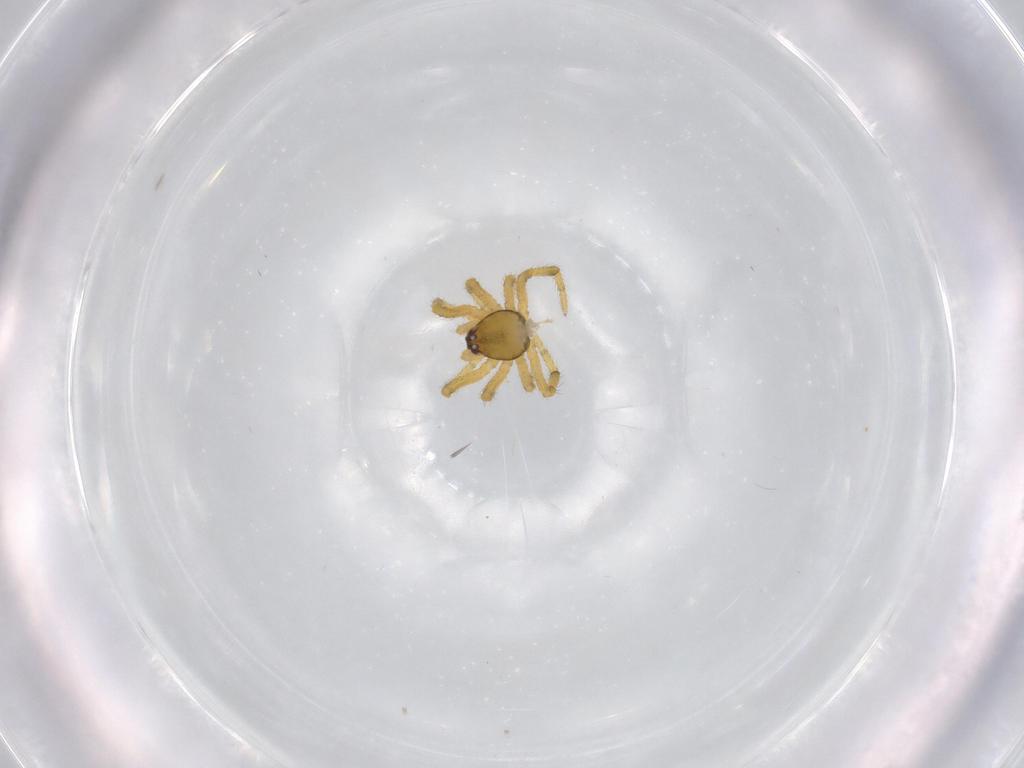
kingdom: Animalia
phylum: Arthropoda
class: Arachnida
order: Araneae
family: Theridiidae
